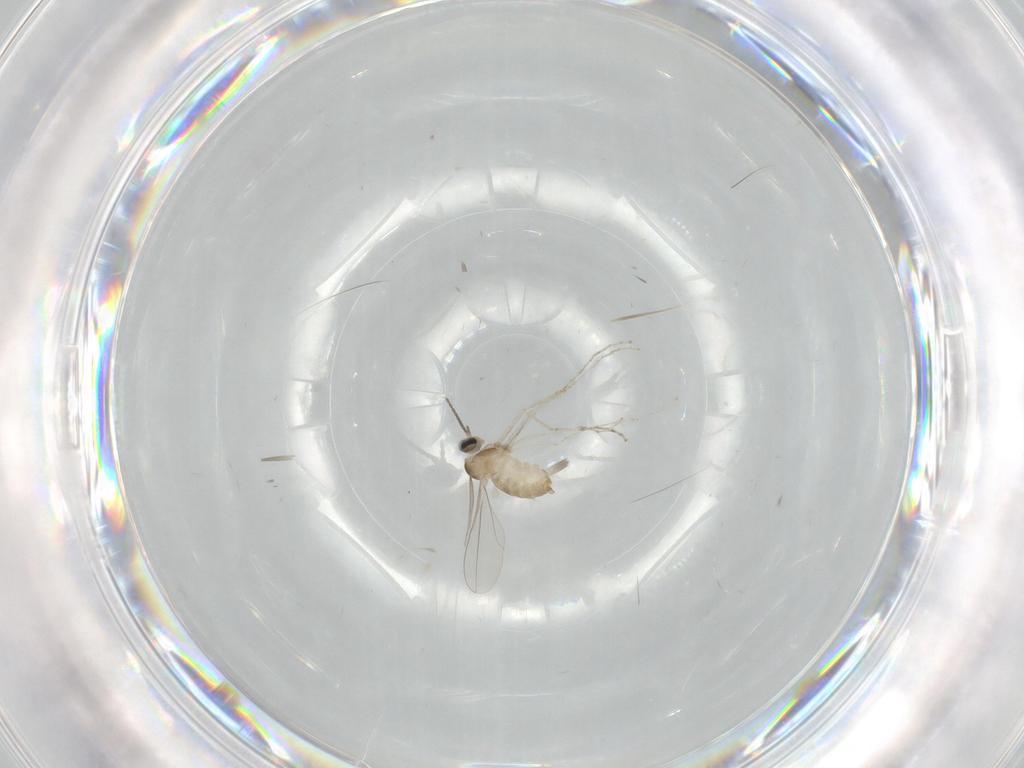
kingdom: Animalia
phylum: Arthropoda
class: Insecta
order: Diptera
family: Cecidomyiidae
